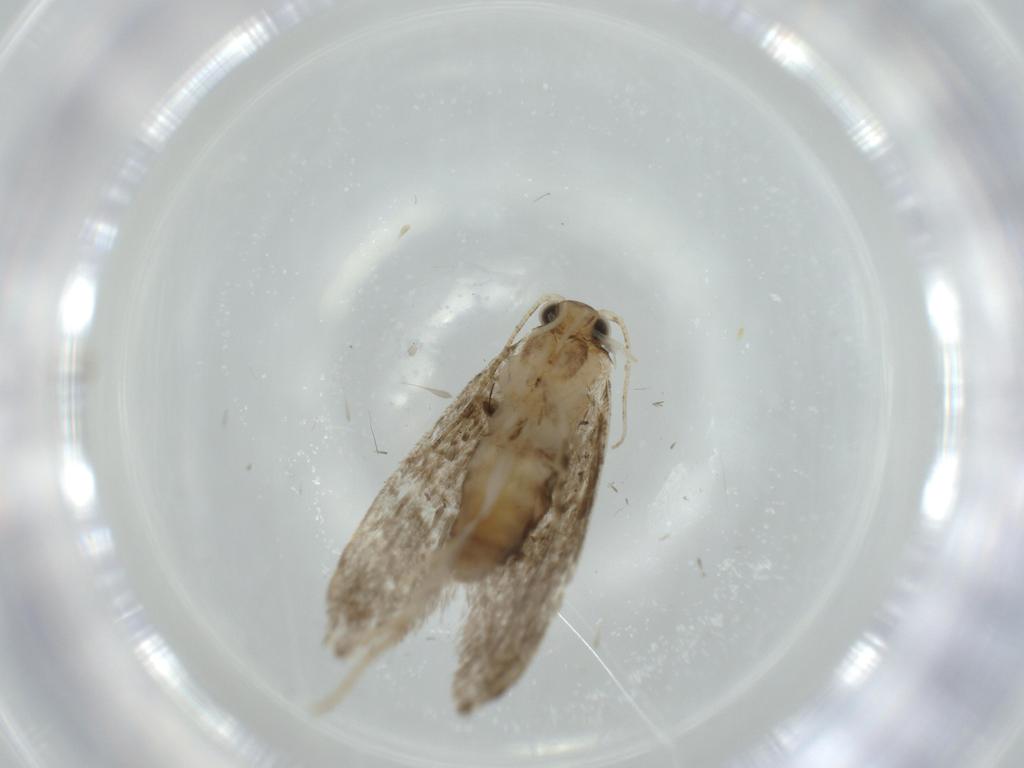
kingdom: Animalia
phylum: Arthropoda
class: Insecta
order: Lepidoptera
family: Tineidae
